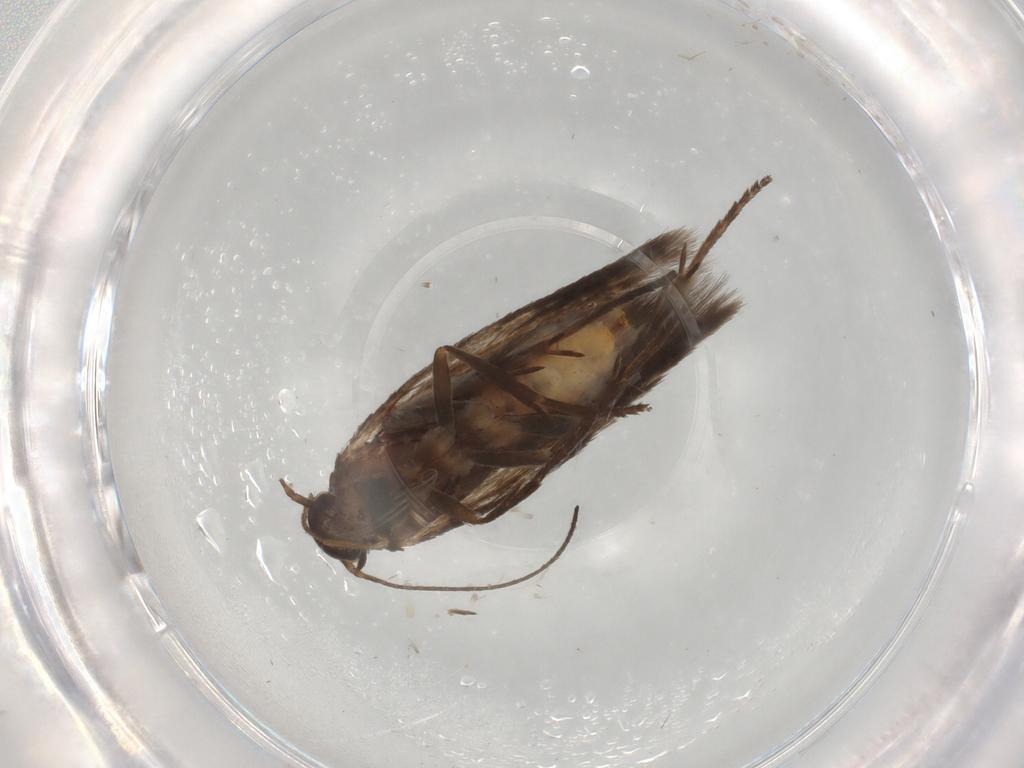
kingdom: Animalia
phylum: Arthropoda
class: Insecta
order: Lepidoptera
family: Scythrididae
